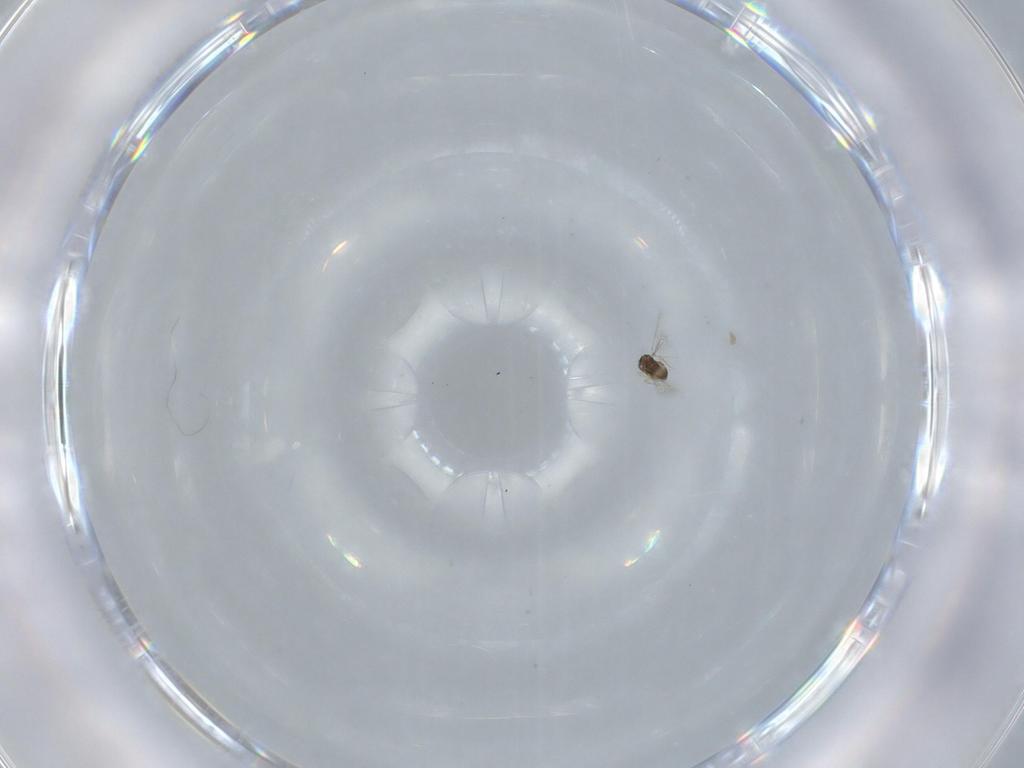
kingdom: Animalia
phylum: Arthropoda
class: Insecta
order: Hymenoptera
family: Mymaridae
